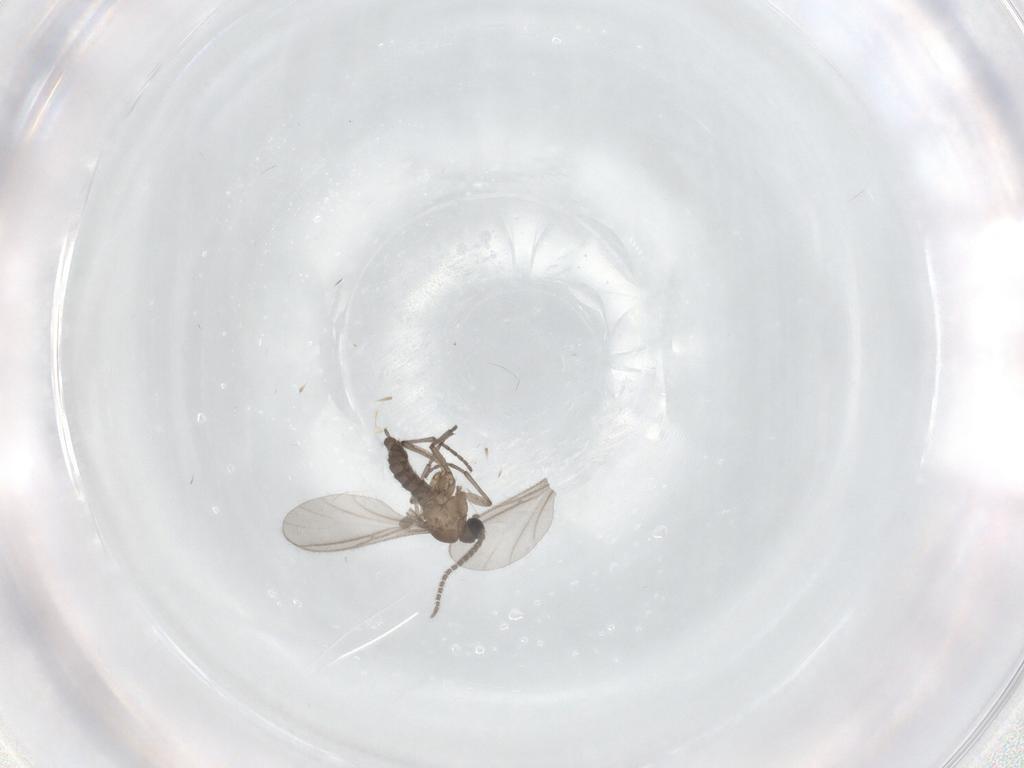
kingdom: Animalia
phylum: Arthropoda
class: Insecta
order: Diptera
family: Sciaridae
